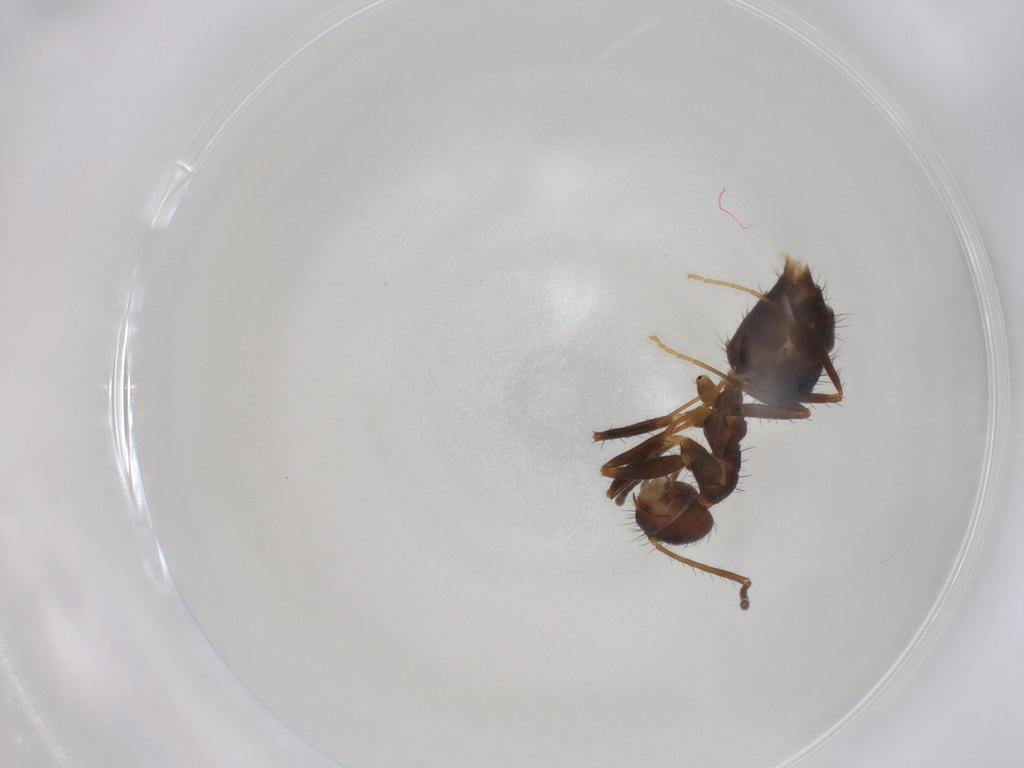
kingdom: Animalia
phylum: Arthropoda
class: Insecta
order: Hymenoptera
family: Formicidae
